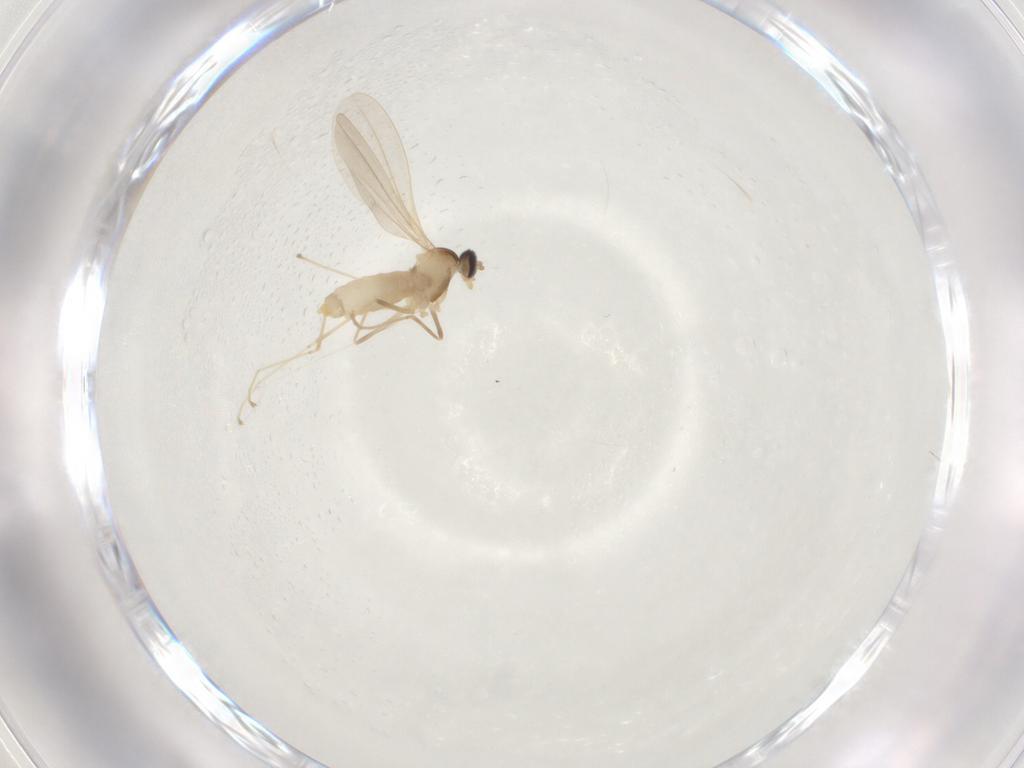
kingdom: Animalia
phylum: Arthropoda
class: Insecta
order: Diptera
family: Cecidomyiidae
